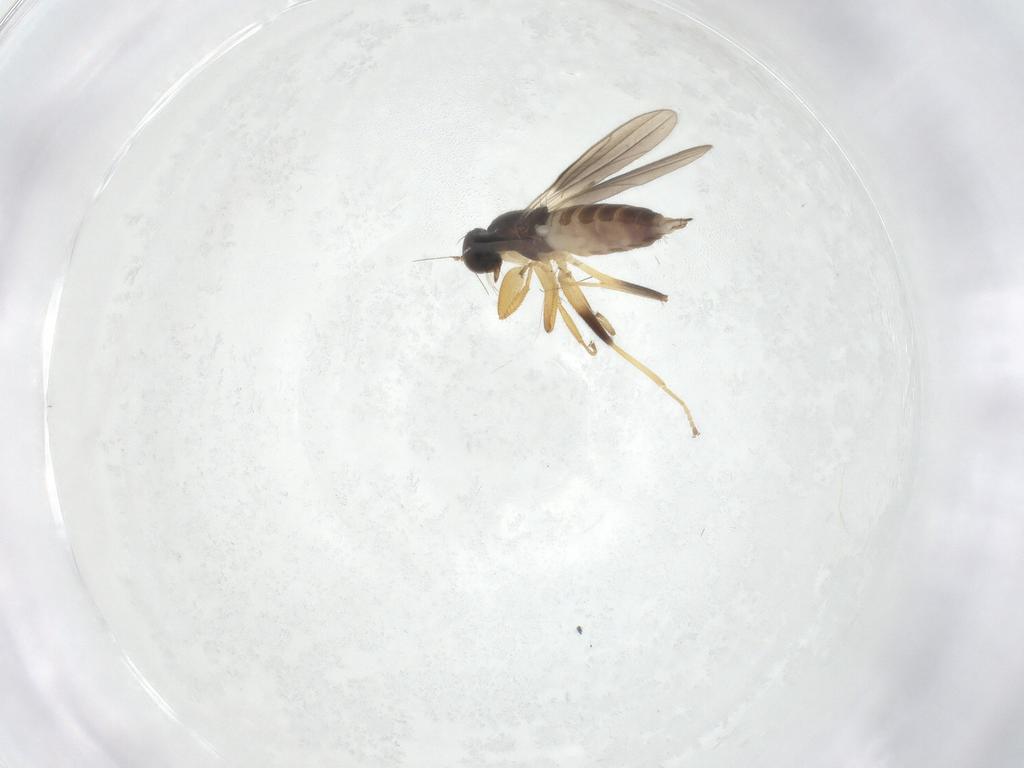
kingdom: Animalia
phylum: Arthropoda
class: Insecta
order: Diptera
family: Hybotidae
